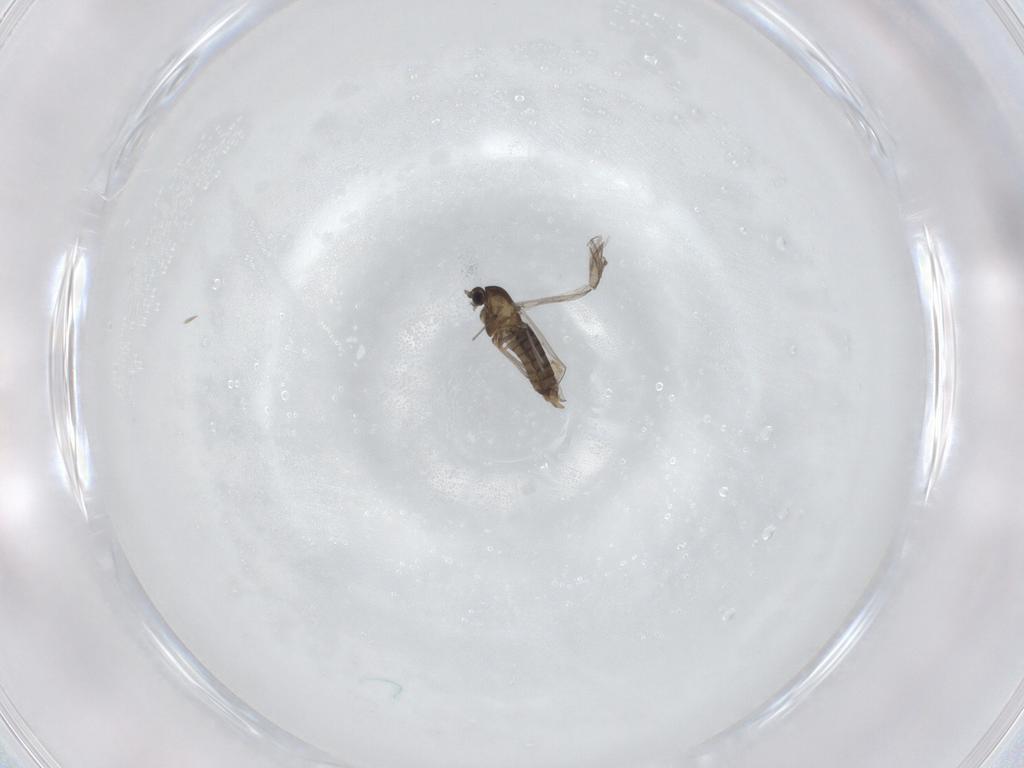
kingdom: Animalia
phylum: Arthropoda
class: Insecta
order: Diptera
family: Chironomidae
